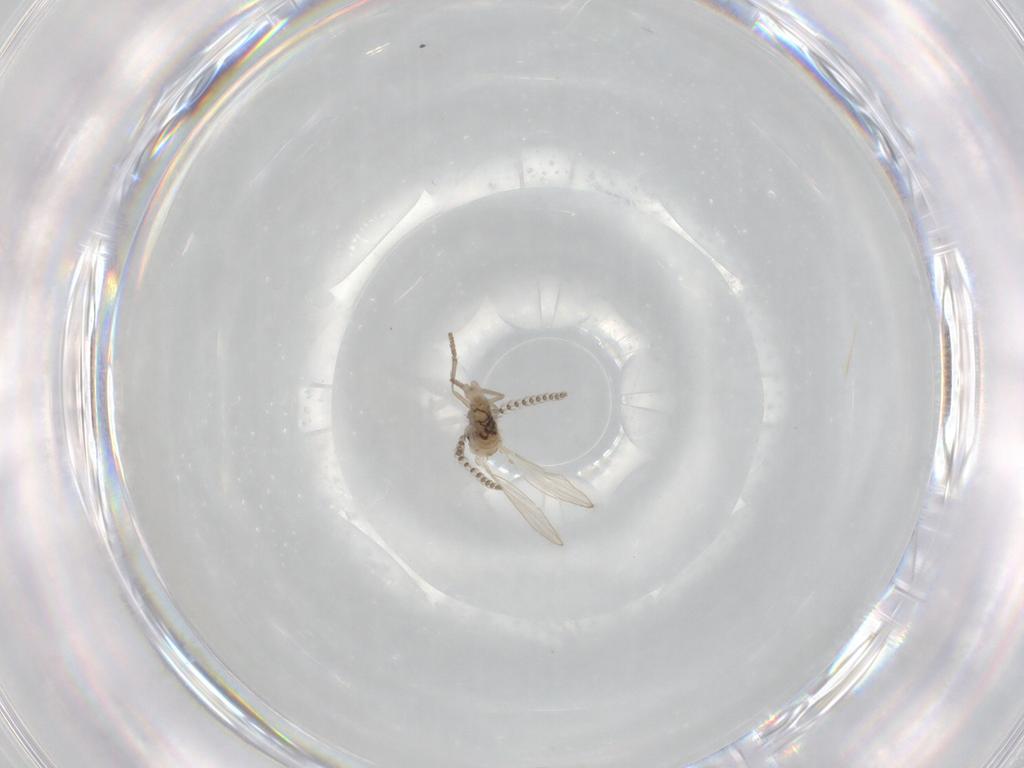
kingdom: Animalia
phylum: Arthropoda
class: Insecta
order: Diptera
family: Psychodidae
